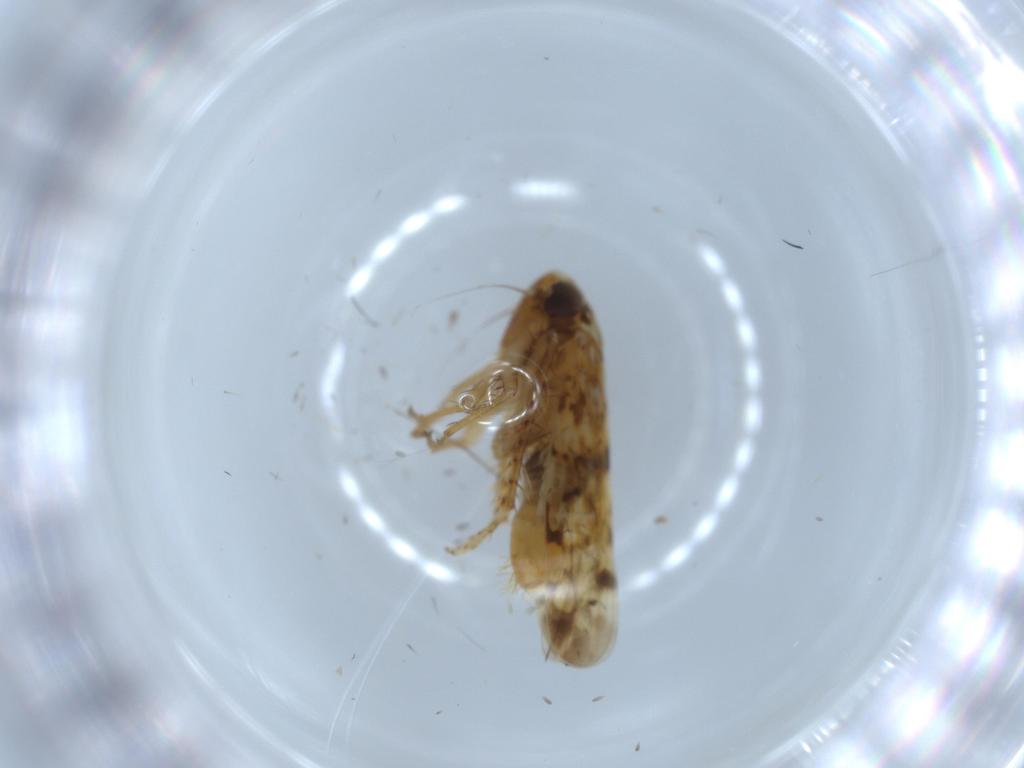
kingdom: Animalia
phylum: Arthropoda
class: Insecta
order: Hemiptera
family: Cicadellidae
